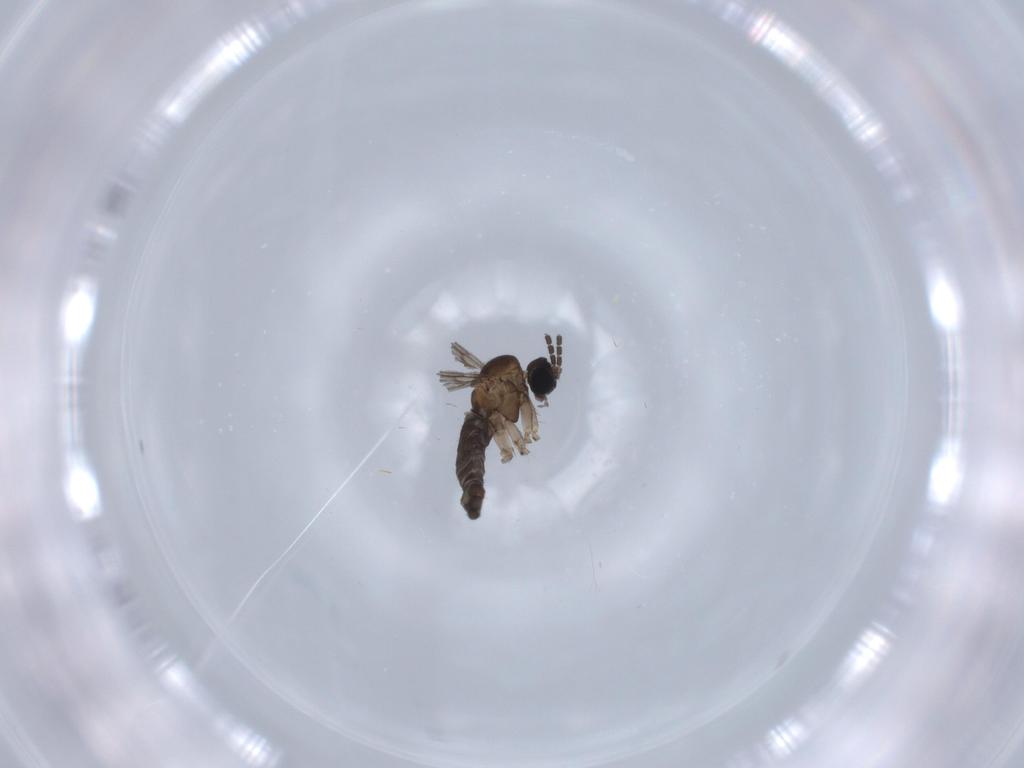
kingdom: Animalia
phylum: Arthropoda
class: Insecta
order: Diptera
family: Sciaridae
